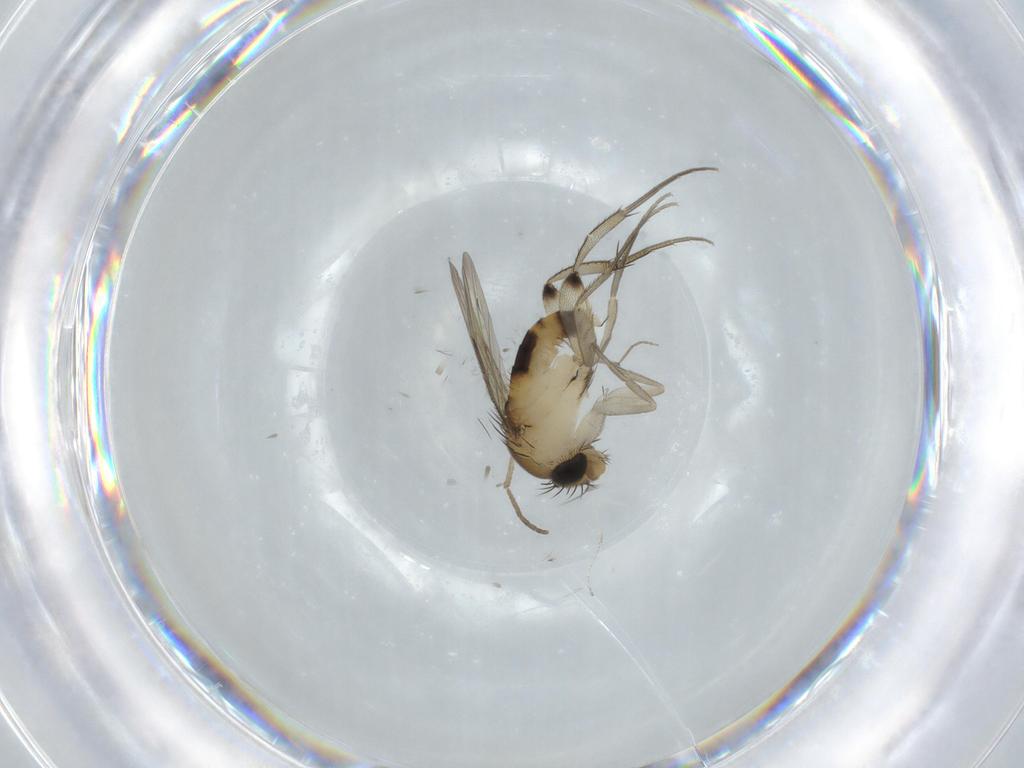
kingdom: Animalia
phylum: Arthropoda
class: Insecta
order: Diptera
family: Phoridae
